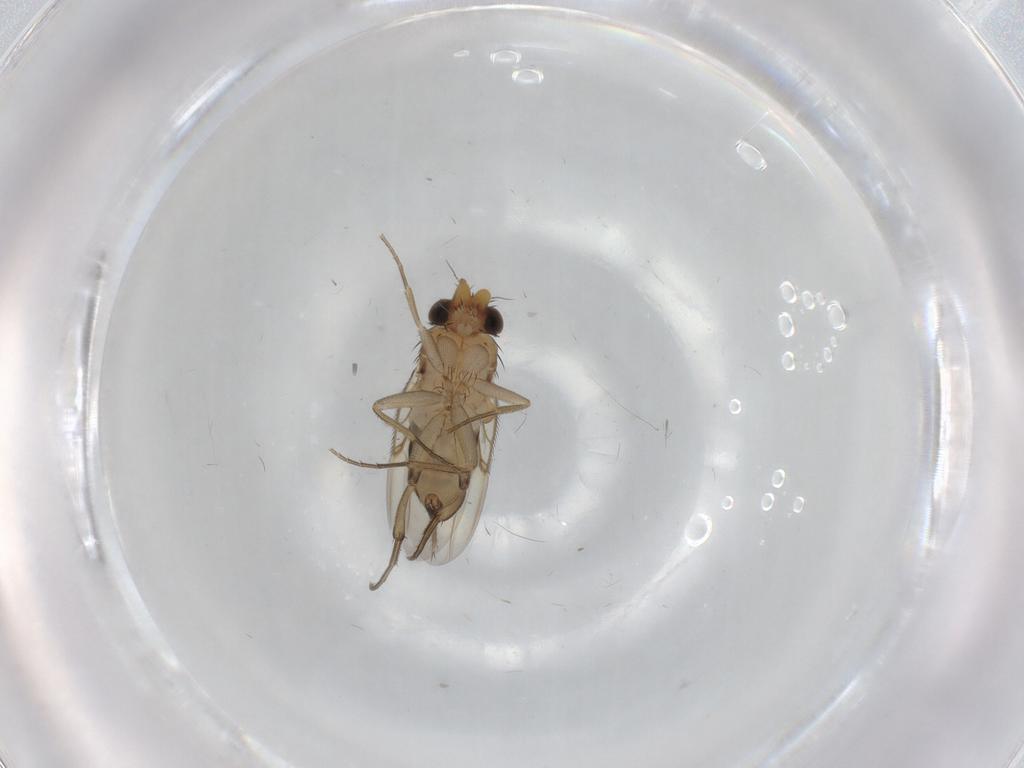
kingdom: Animalia
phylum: Arthropoda
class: Insecta
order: Diptera
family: Phoridae
